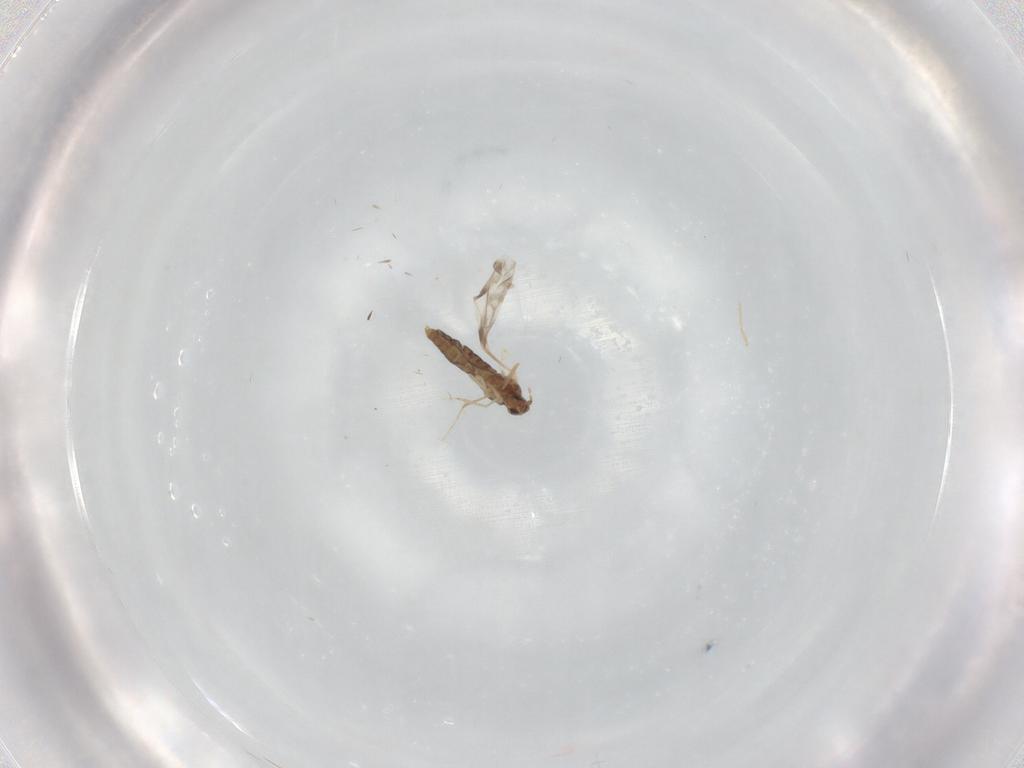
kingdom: Animalia
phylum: Arthropoda
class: Insecta
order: Diptera
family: Cecidomyiidae
